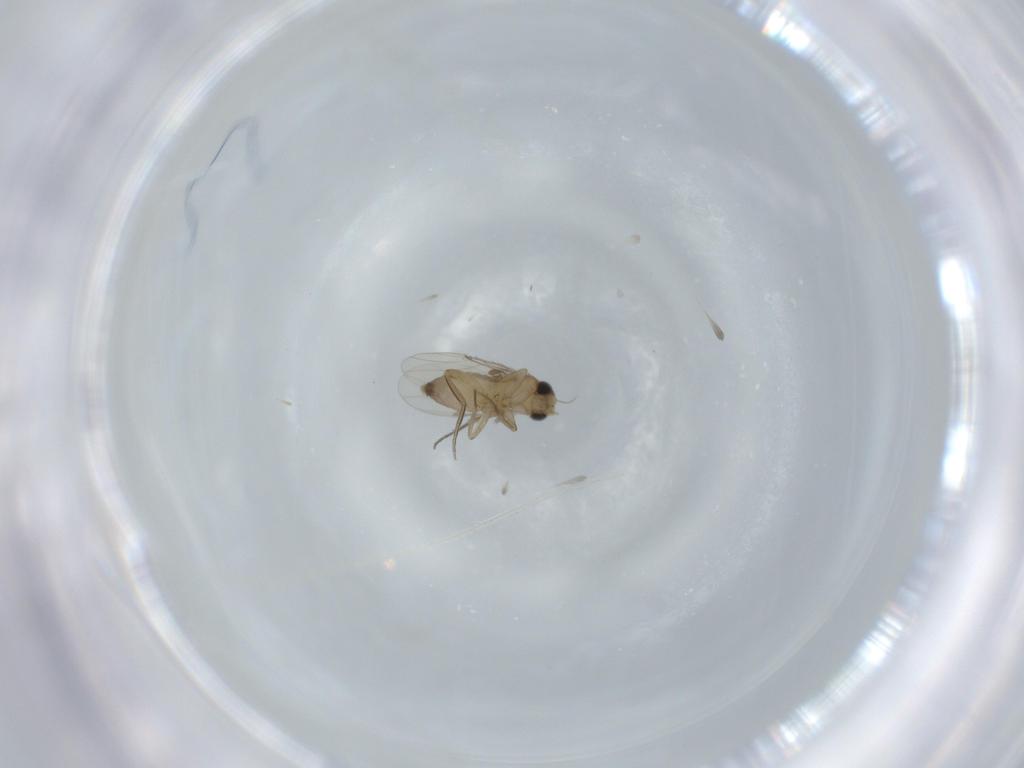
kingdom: Animalia
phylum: Arthropoda
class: Insecta
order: Diptera
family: Phoridae
